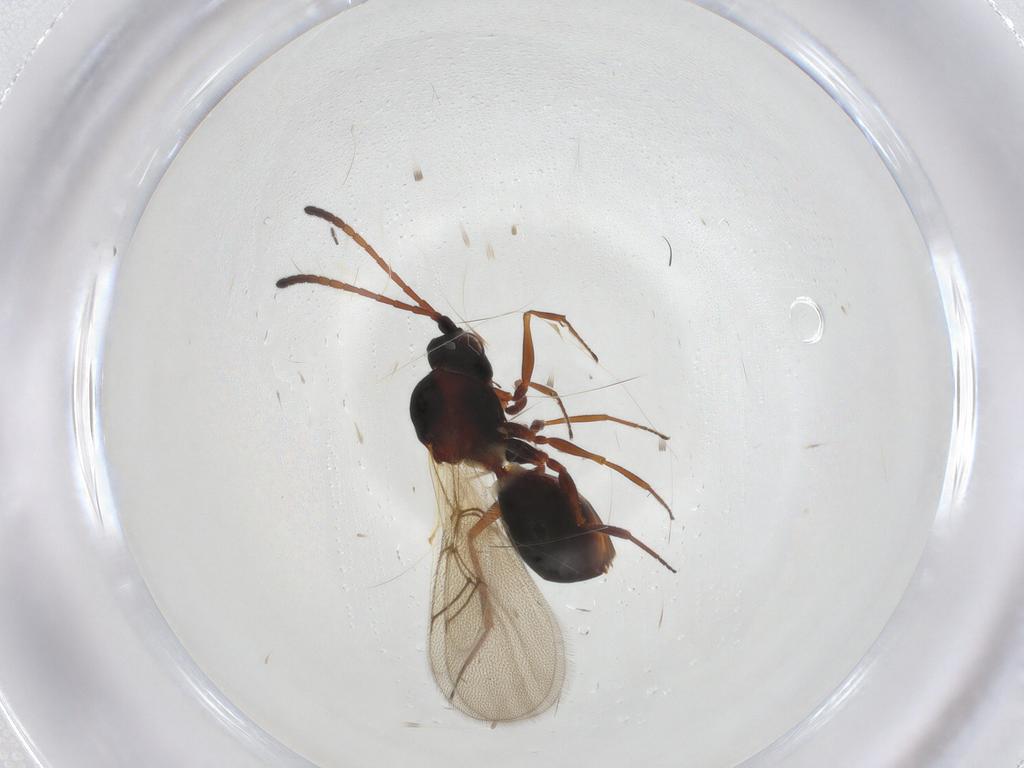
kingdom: Animalia
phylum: Arthropoda
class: Insecta
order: Hymenoptera
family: Figitidae
